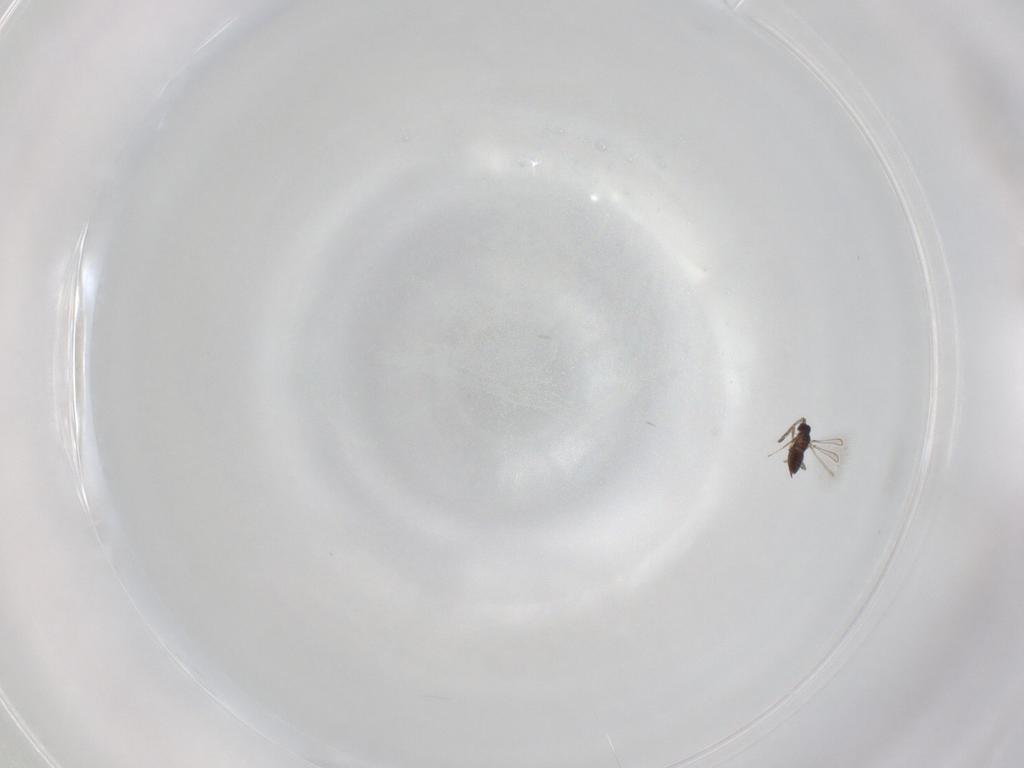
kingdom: Animalia
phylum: Arthropoda
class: Insecta
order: Hymenoptera
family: Scelionidae
